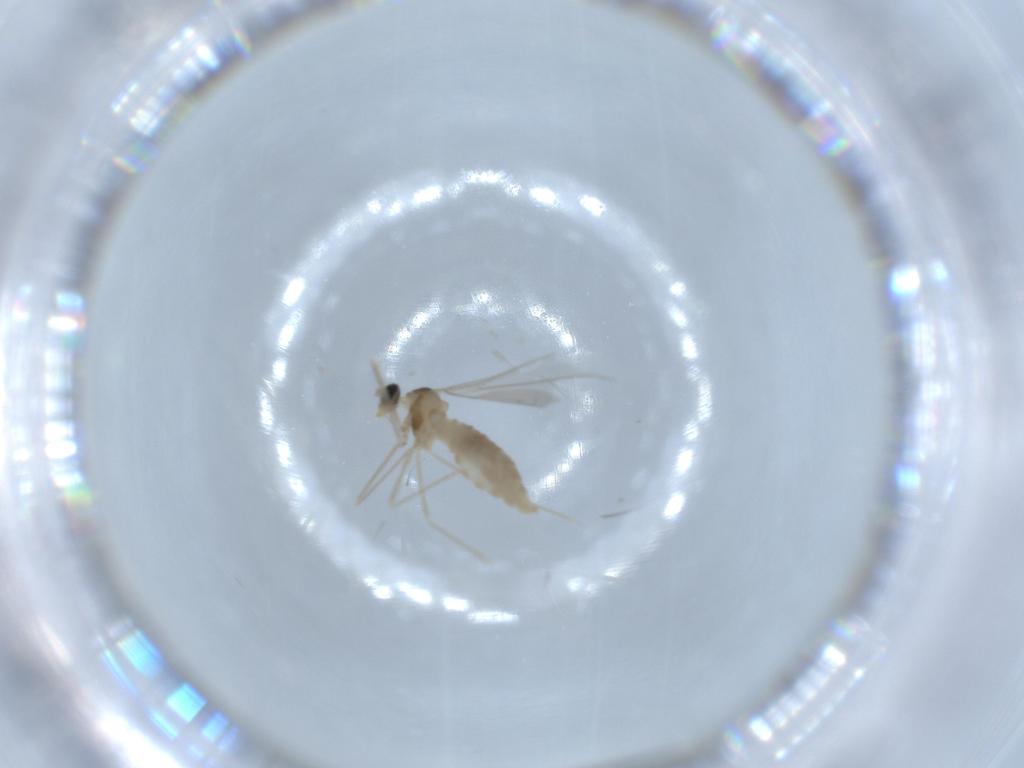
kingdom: Animalia
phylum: Arthropoda
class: Insecta
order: Diptera
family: Cecidomyiidae
